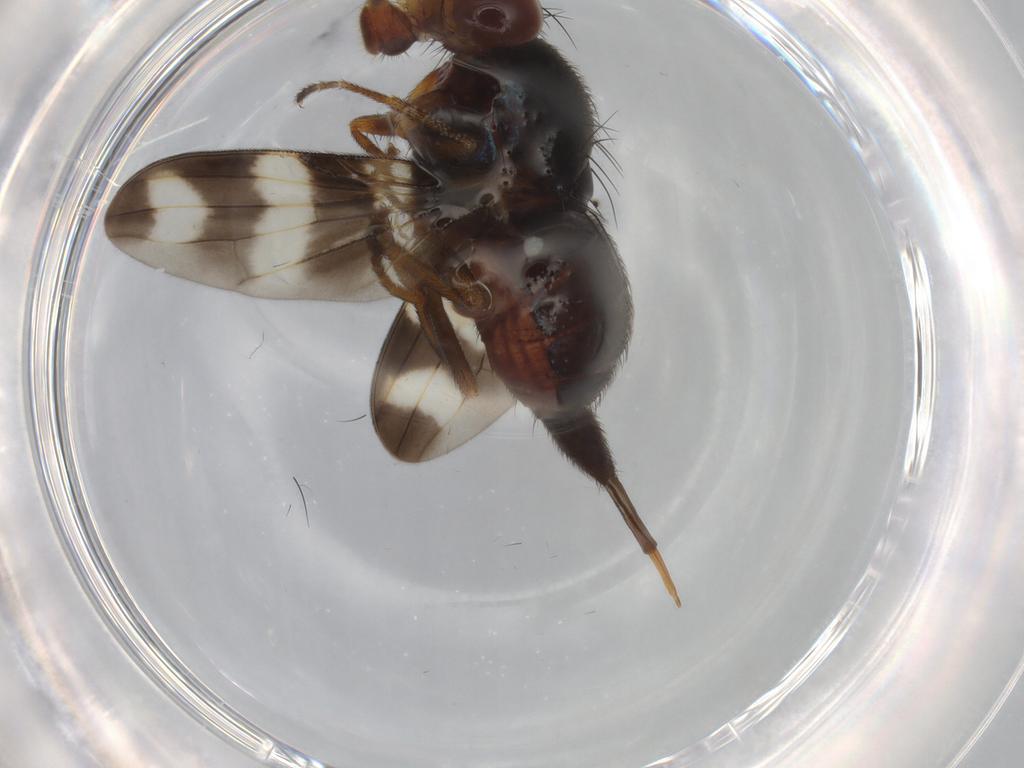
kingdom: Animalia
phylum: Arthropoda
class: Insecta
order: Diptera
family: Ulidiidae
